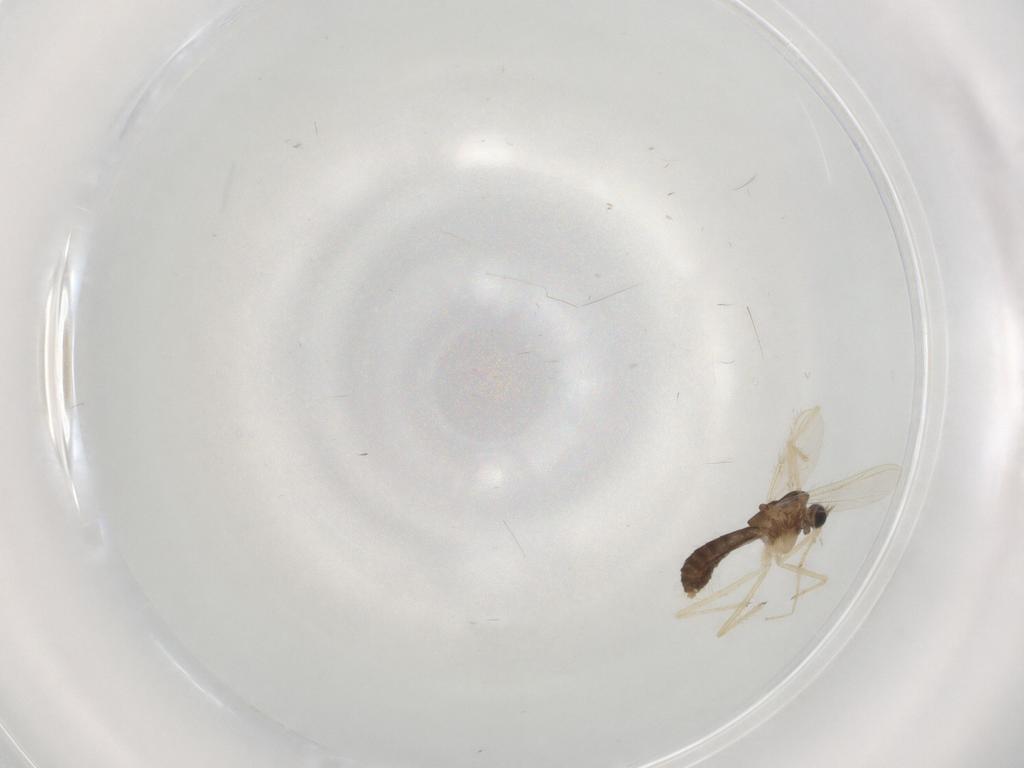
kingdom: Animalia
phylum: Arthropoda
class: Insecta
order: Diptera
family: Chironomidae
